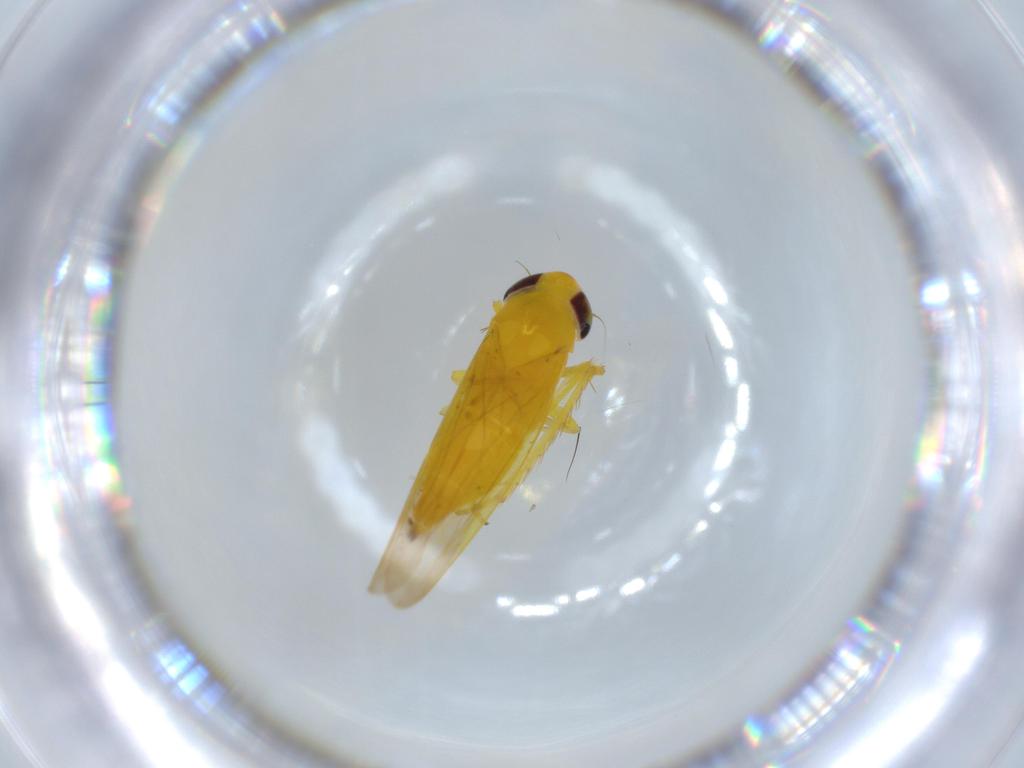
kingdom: Animalia
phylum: Arthropoda
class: Insecta
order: Hemiptera
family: Cicadellidae
